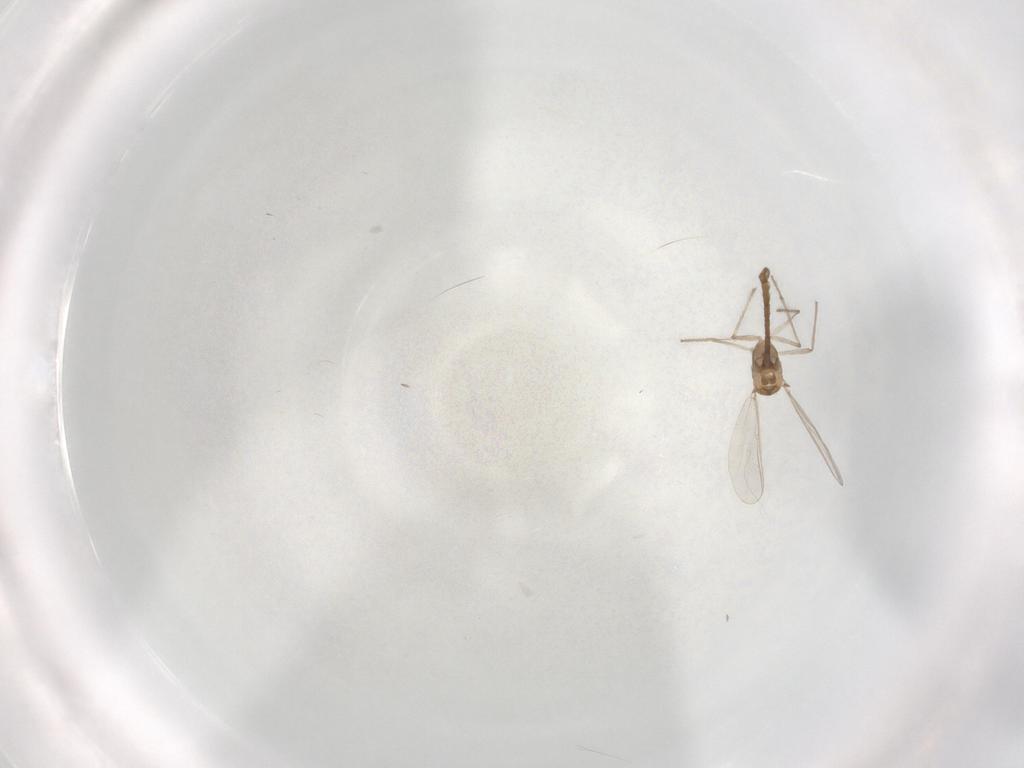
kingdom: Animalia
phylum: Arthropoda
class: Insecta
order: Diptera
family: Chironomidae
